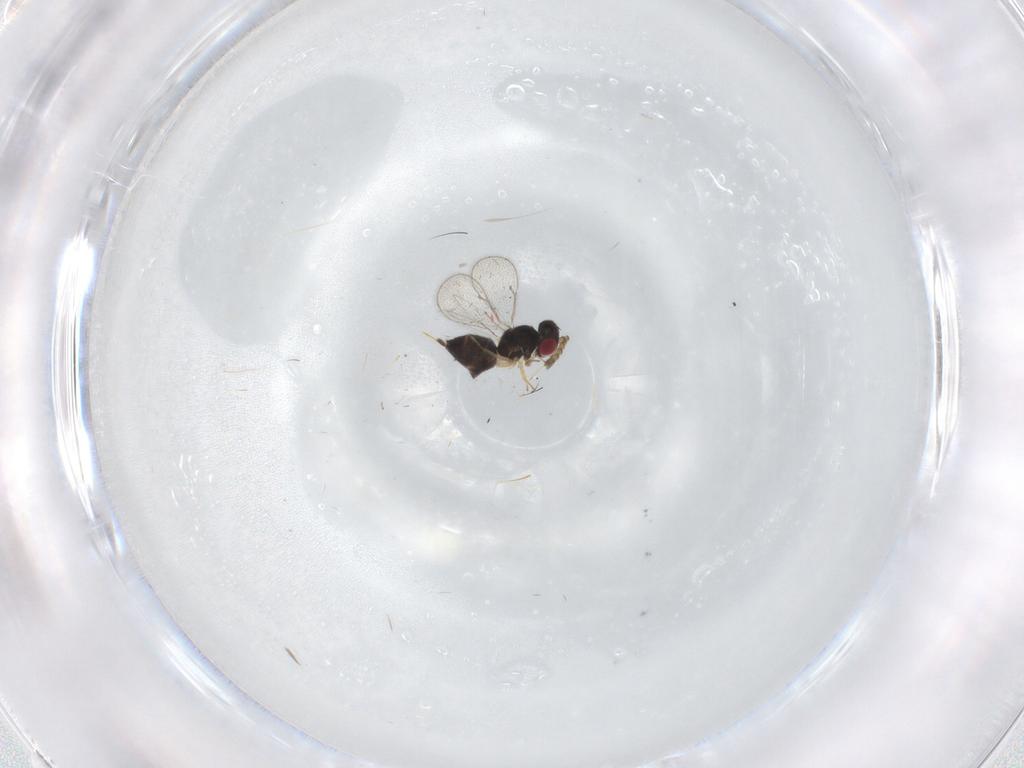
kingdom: Animalia
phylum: Arthropoda
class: Insecta
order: Hymenoptera
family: Eulophidae
